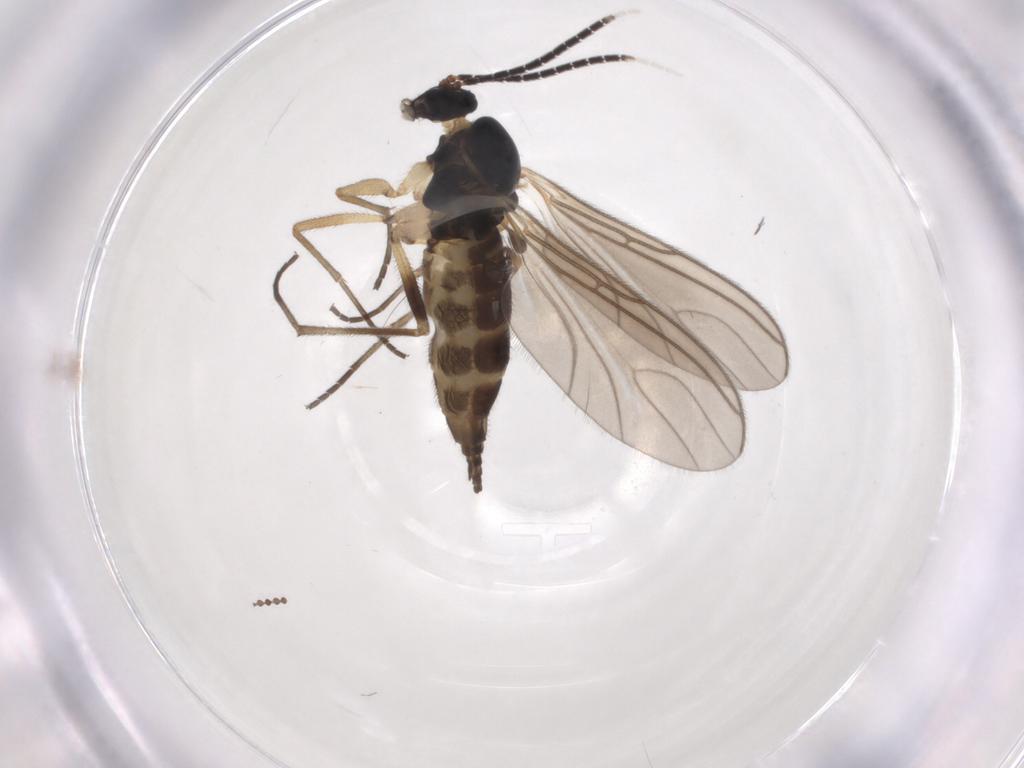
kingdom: Animalia
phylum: Arthropoda
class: Insecta
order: Diptera
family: Sciaridae
